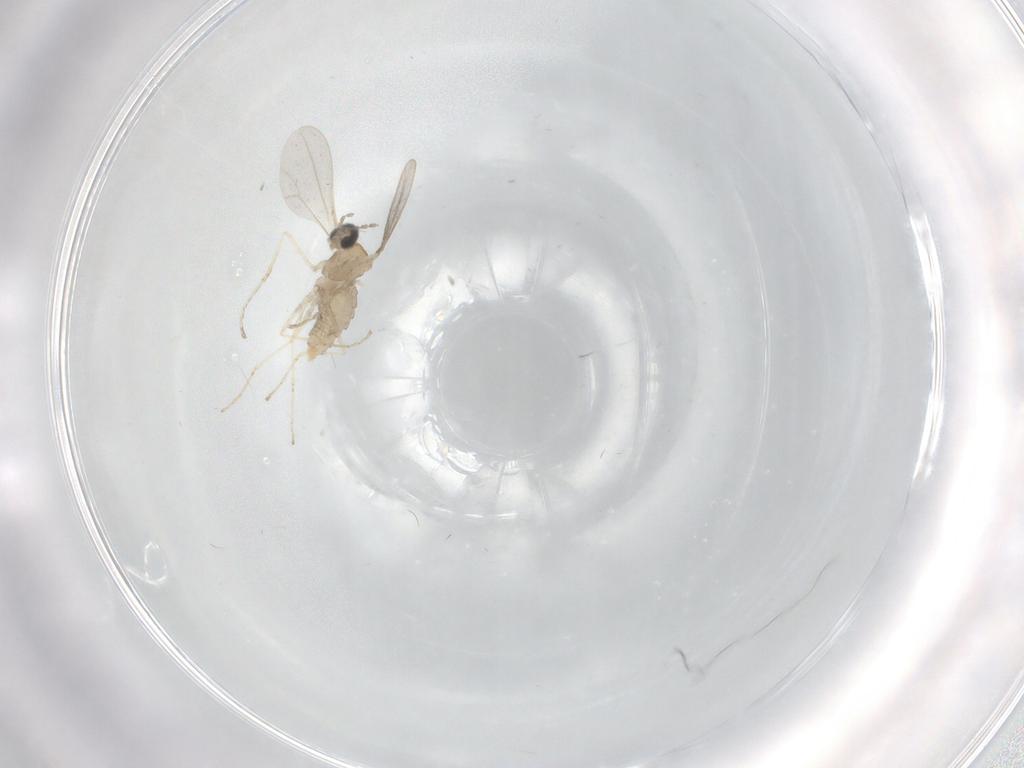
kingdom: Animalia
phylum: Arthropoda
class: Insecta
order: Diptera
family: Cecidomyiidae
